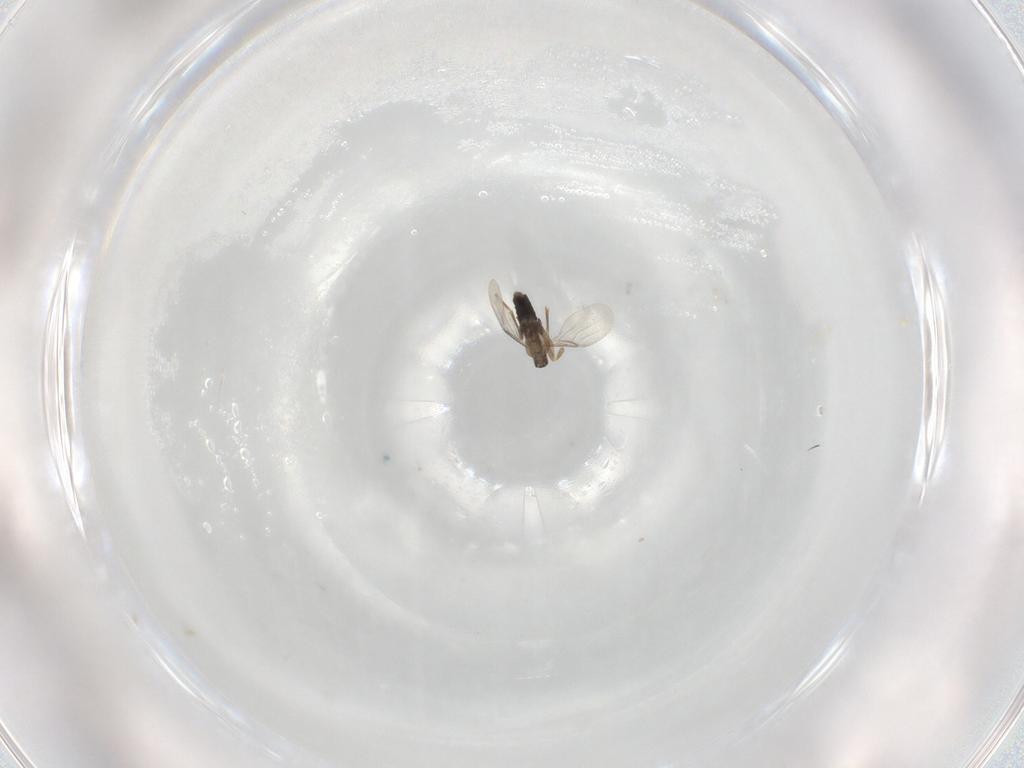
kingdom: Animalia
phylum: Arthropoda
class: Insecta
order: Diptera
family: Phoridae
